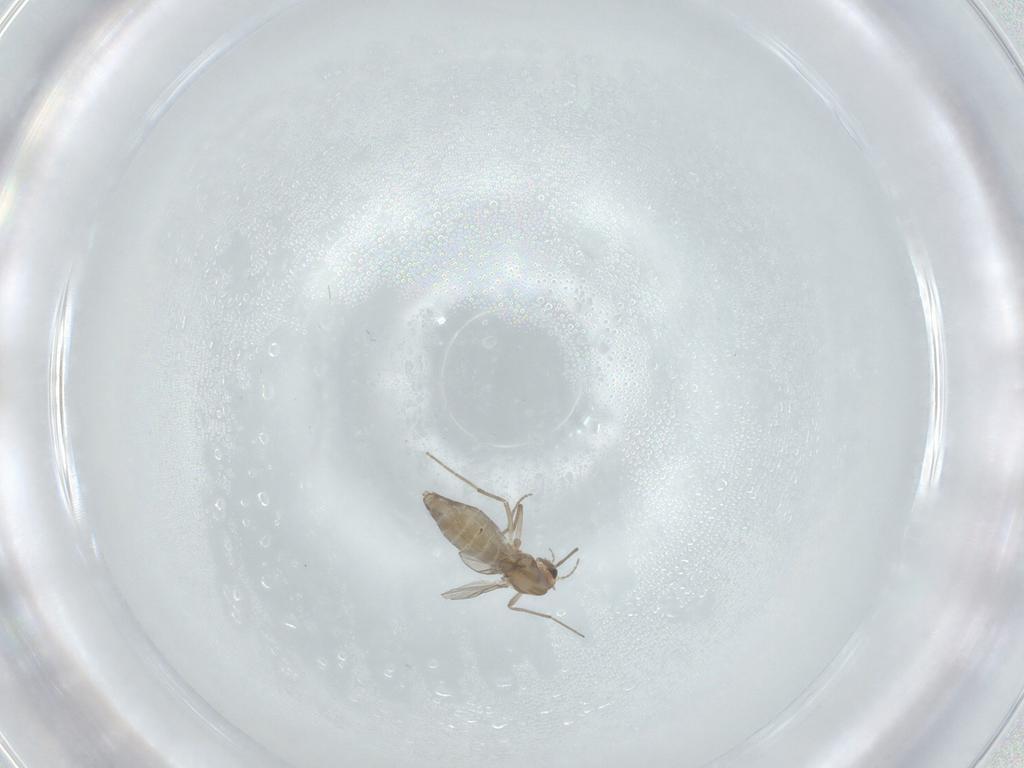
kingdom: Animalia
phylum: Arthropoda
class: Insecta
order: Diptera
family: Chironomidae
